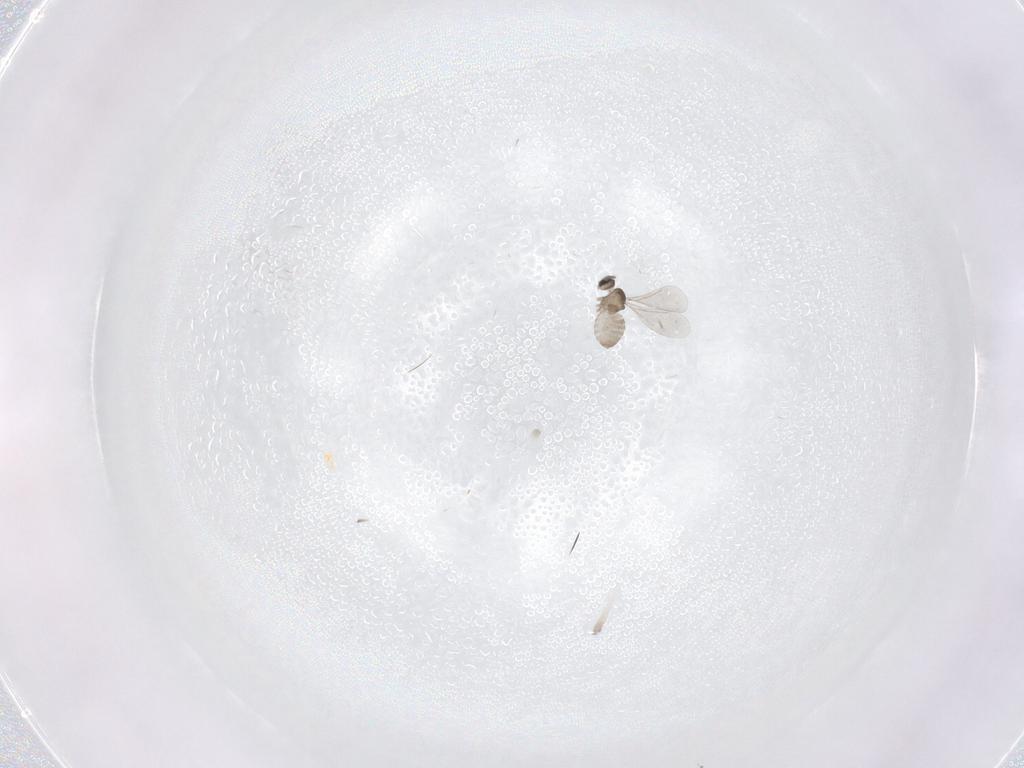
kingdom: Animalia
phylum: Arthropoda
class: Insecta
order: Diptera
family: Cecidomyiidae
